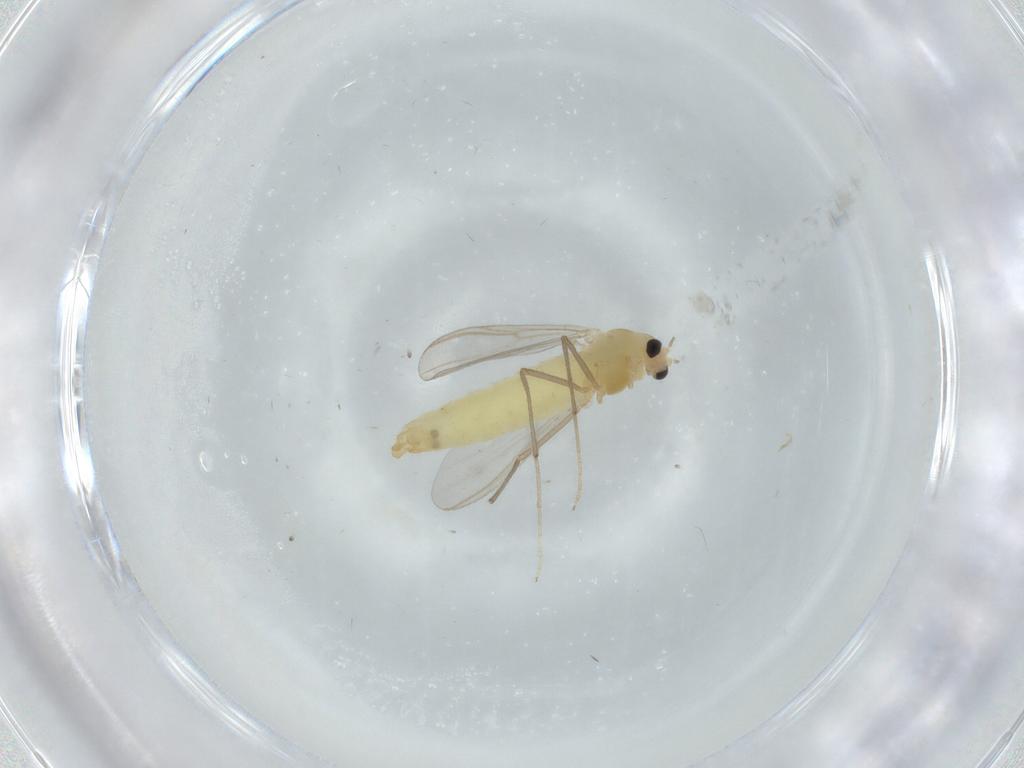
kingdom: Animalia
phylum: Arthropoda
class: Insecta
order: Diptera
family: Chironomidae
